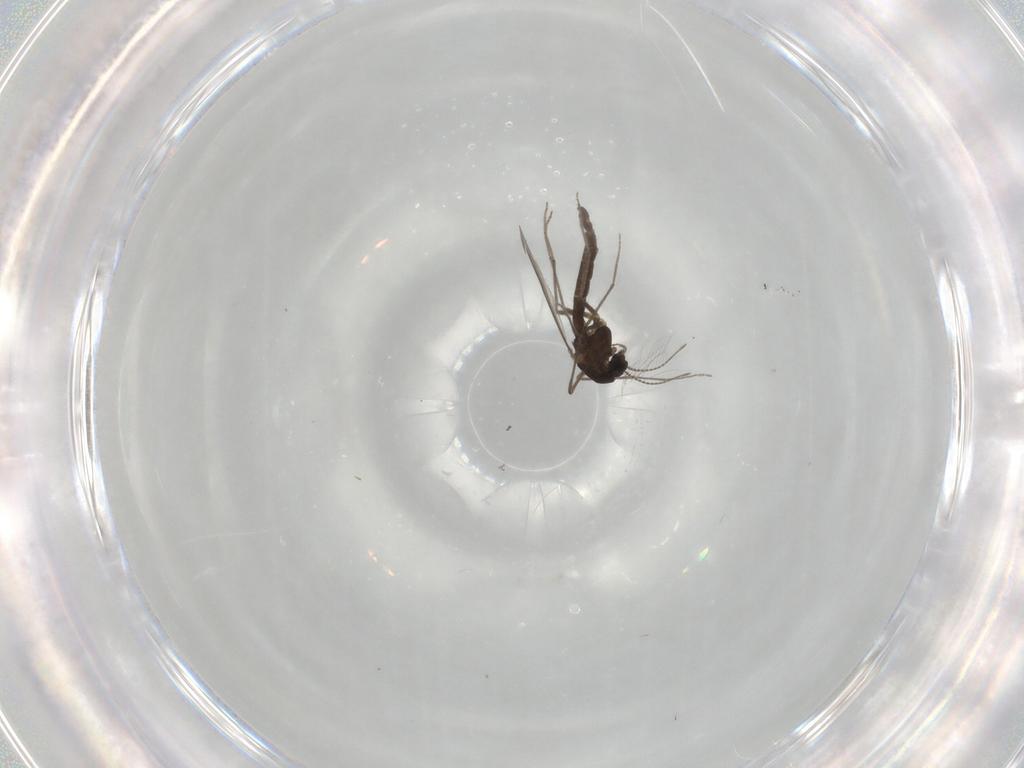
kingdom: Animalia
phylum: Arthropoda
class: Insecta
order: Diptera
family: Chironomidae
